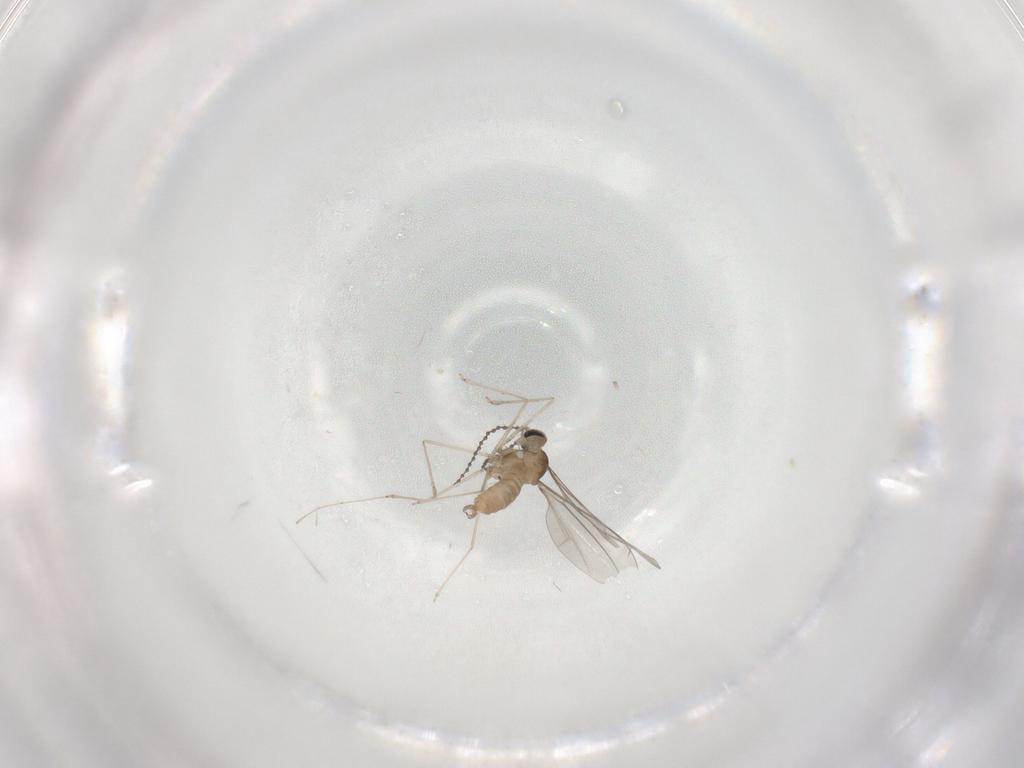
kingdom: Animalia
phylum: Arthropoda
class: Insecta
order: Diptera
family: Cecidomyiidae
